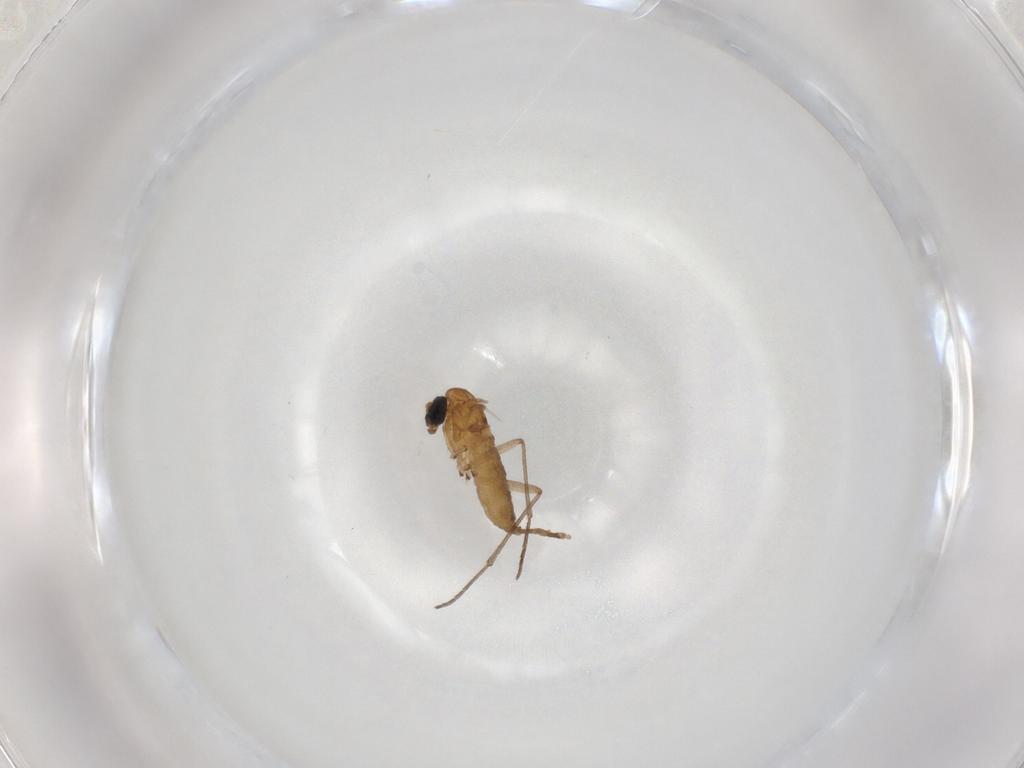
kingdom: Animalia
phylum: Arthropoda
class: Insecta
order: Diptera
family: Sciaridae
